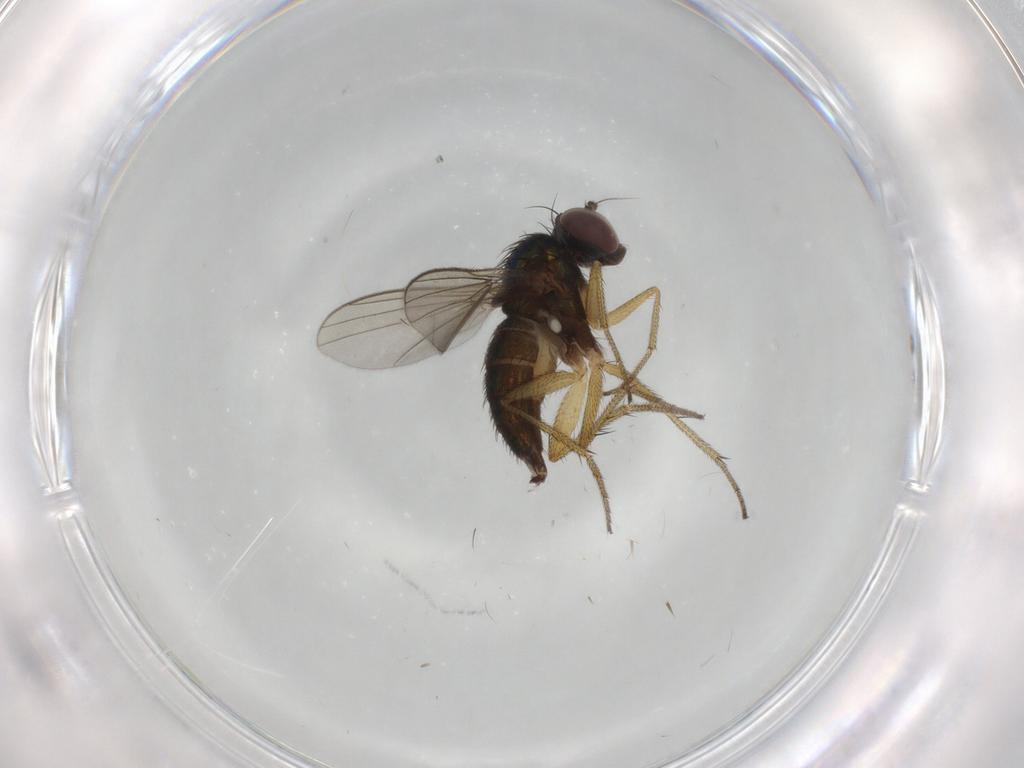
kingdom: Animalia
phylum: Arthropoda
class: Insecta
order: Diptera
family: Dolichopodidae
